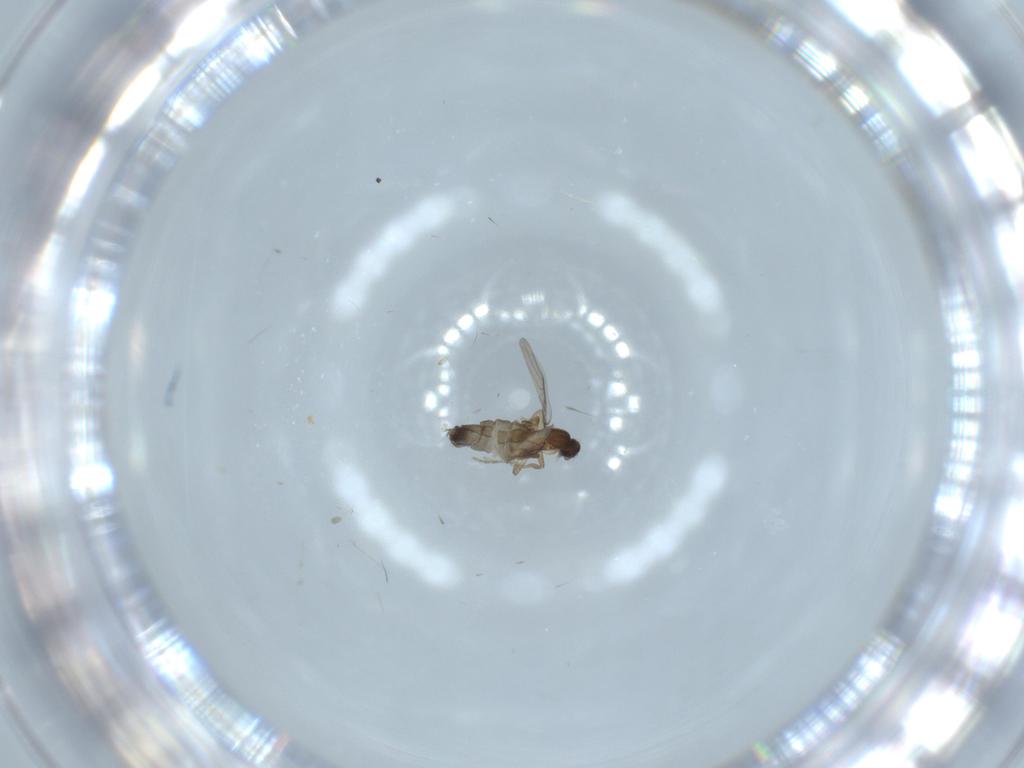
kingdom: Animalia
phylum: Arthropoda
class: Insecta
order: Diptera
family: Phoridae
